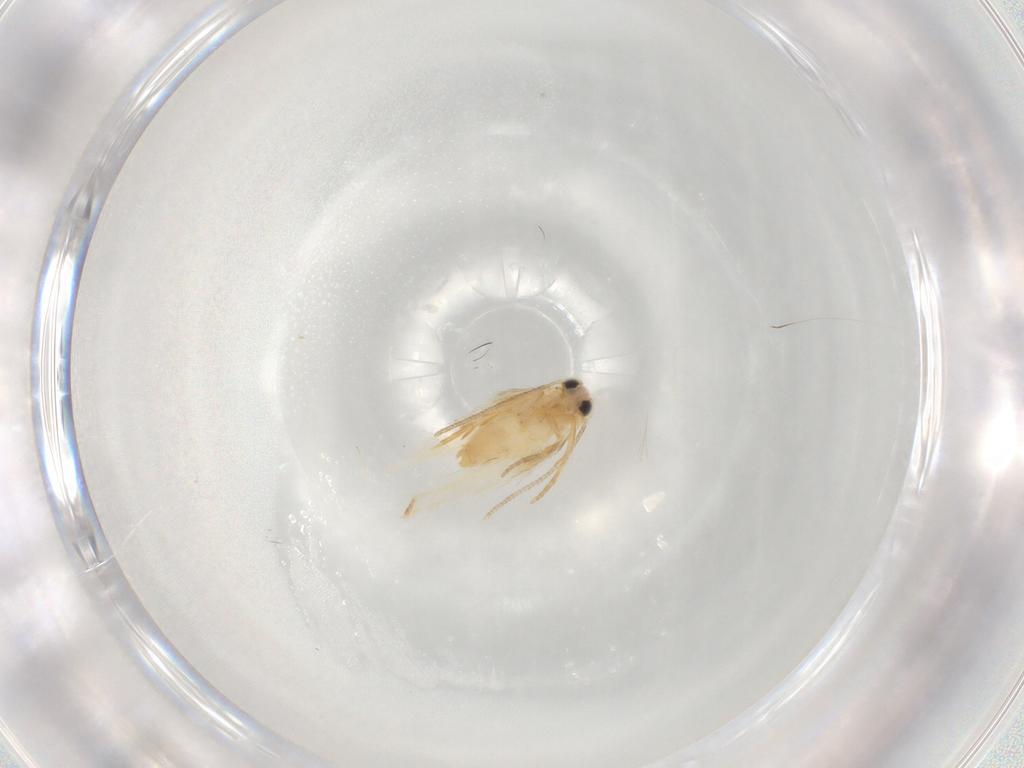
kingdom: Animalia
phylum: Arthropoda
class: Insecta
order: Lepidoptera
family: Nepticulidae
